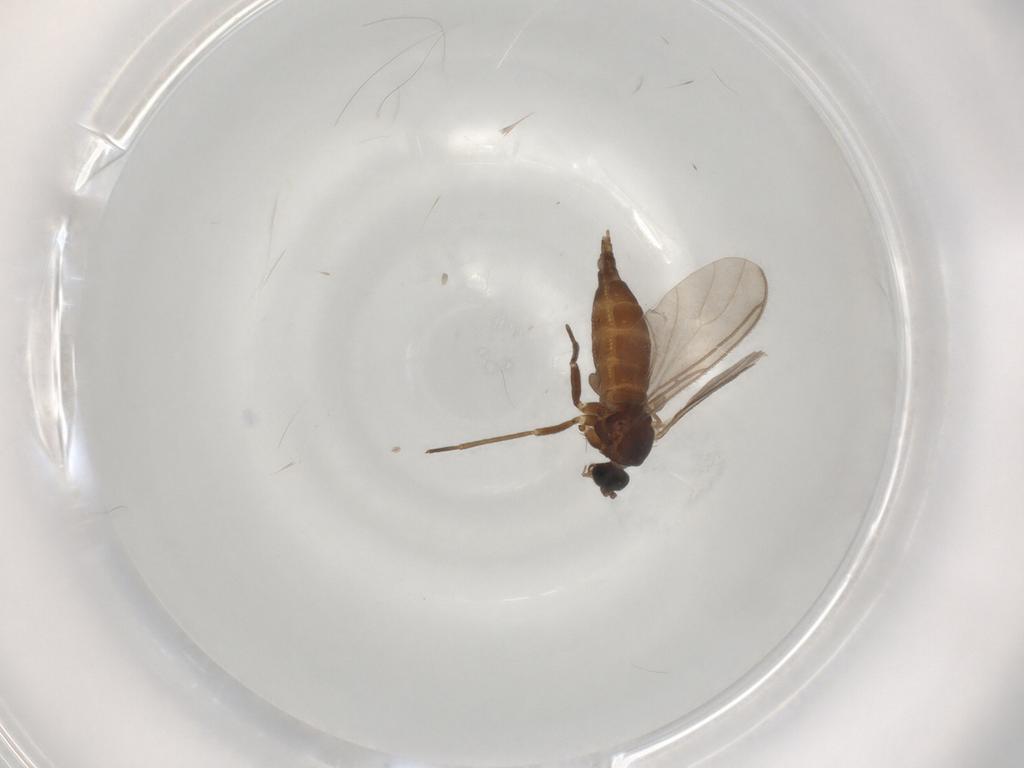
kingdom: Animalia
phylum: Arthropoda
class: Insecta
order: Diptera
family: Sciaridae
